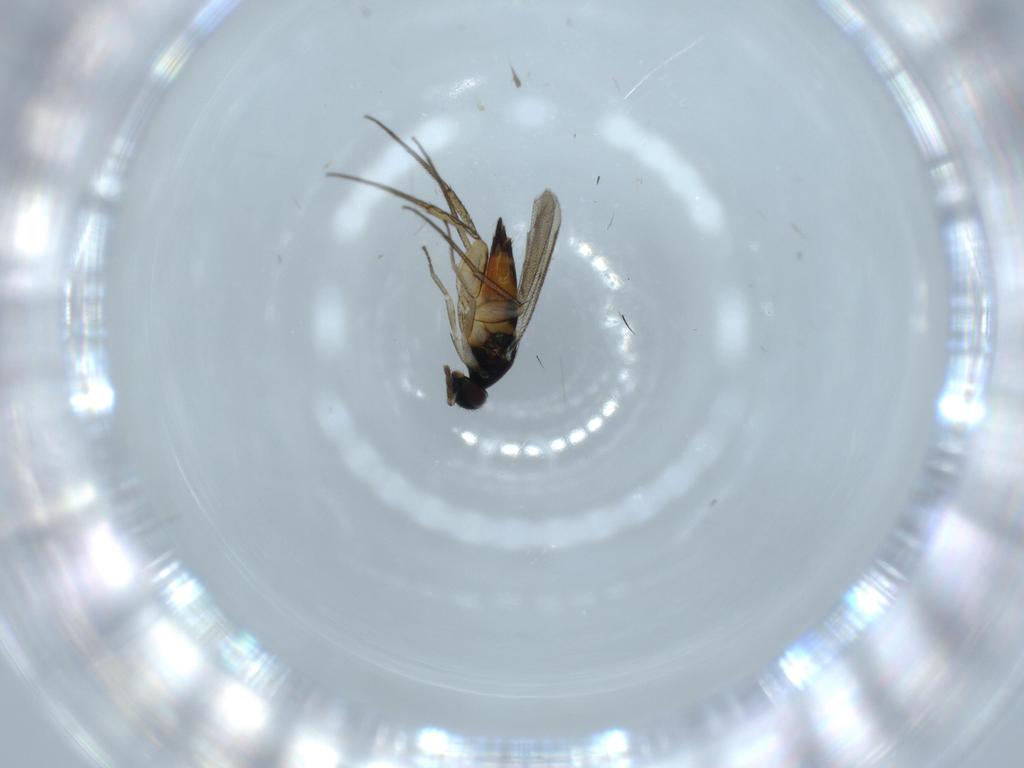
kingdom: Animalia
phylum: Arthropoda
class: Insecta
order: Hymenoptera
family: Eulophidae
